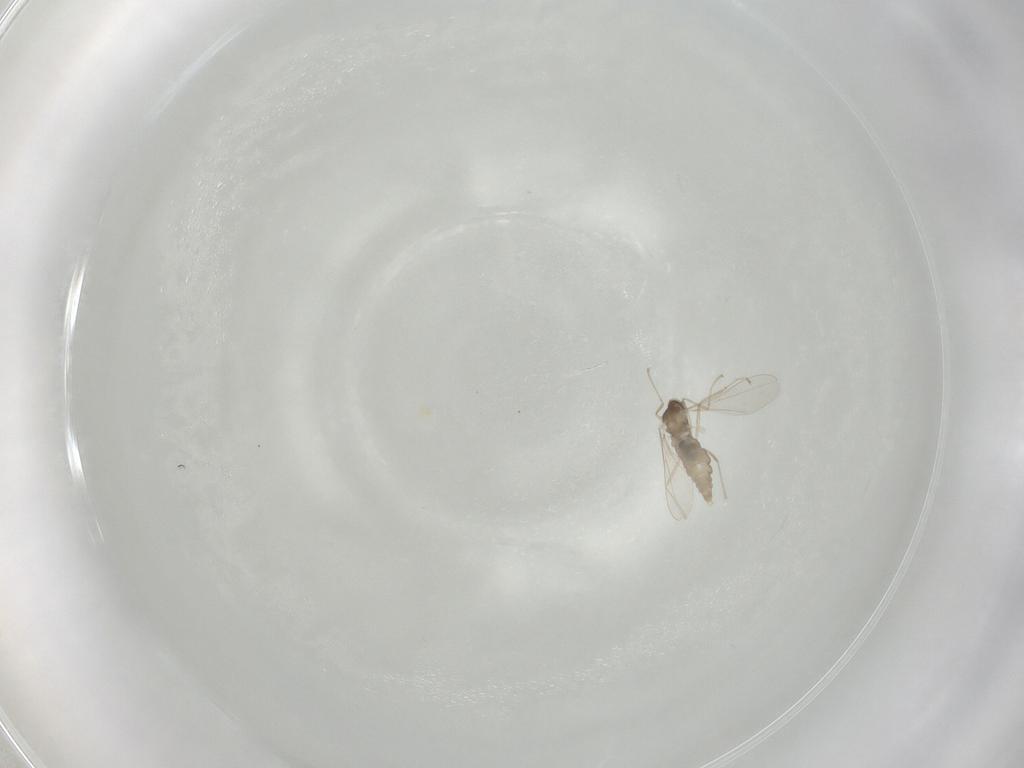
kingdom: Animalia
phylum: Arthropoda
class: Insecta
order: Diptera
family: Cecidomyiidae
